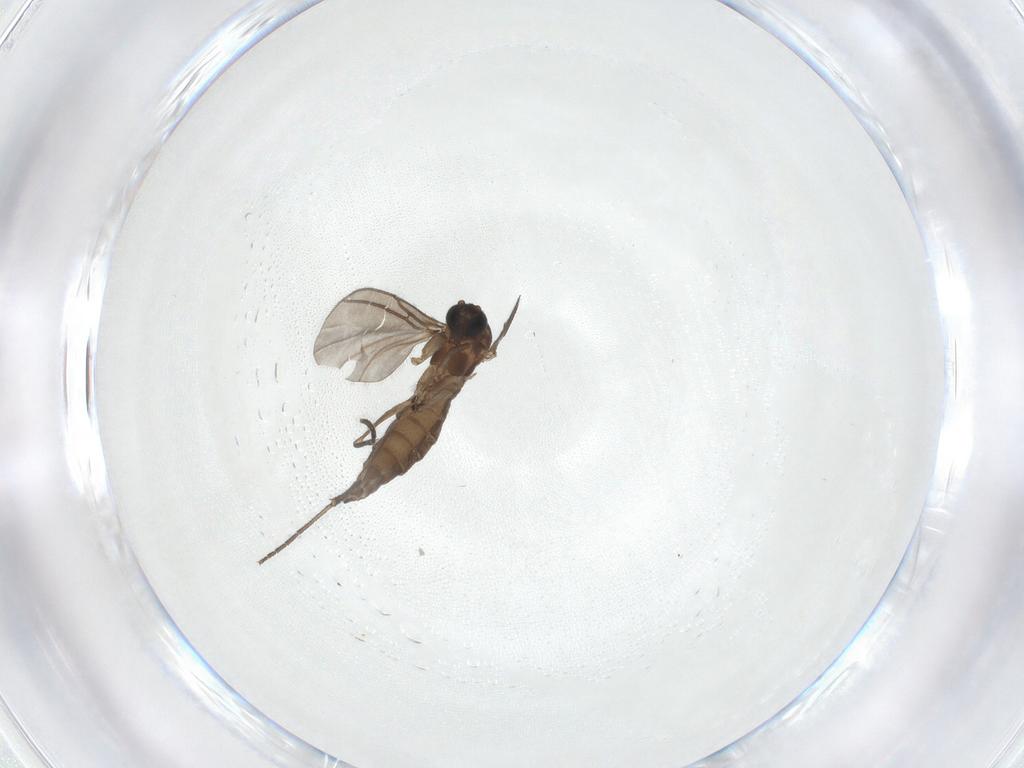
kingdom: Animalia
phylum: Arthropoda
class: Insecta
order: Diptera
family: Sciaridae
